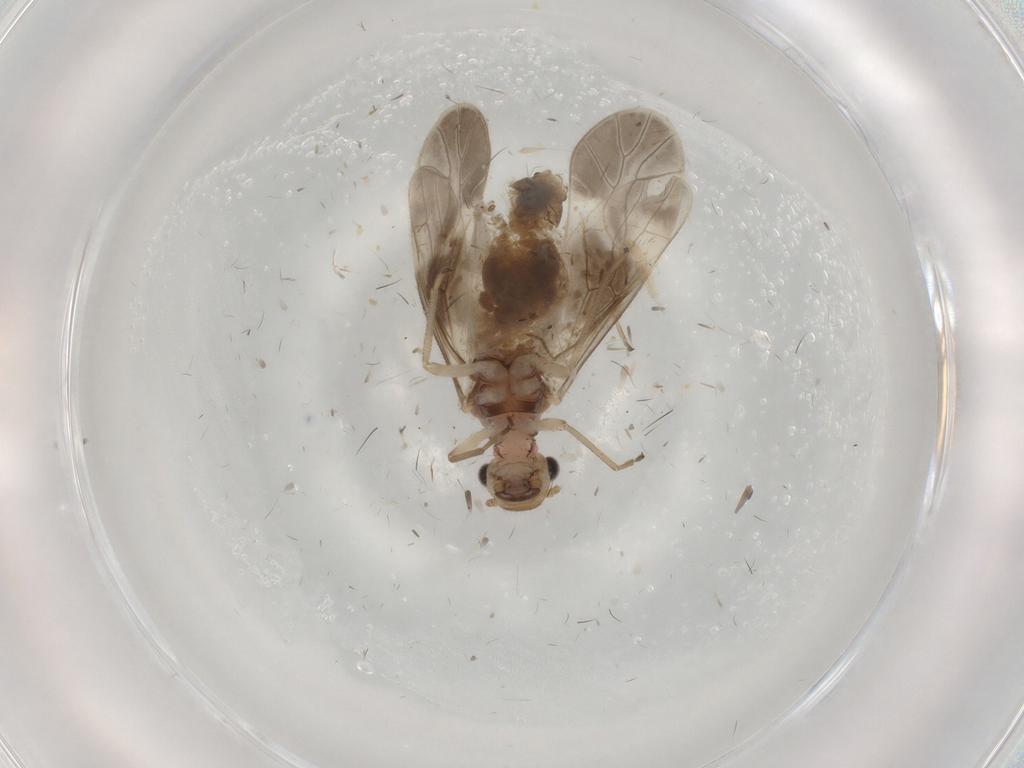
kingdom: Animalia
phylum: Arthropoda
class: Insecta
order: Psocodea
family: Caeciliusidae
